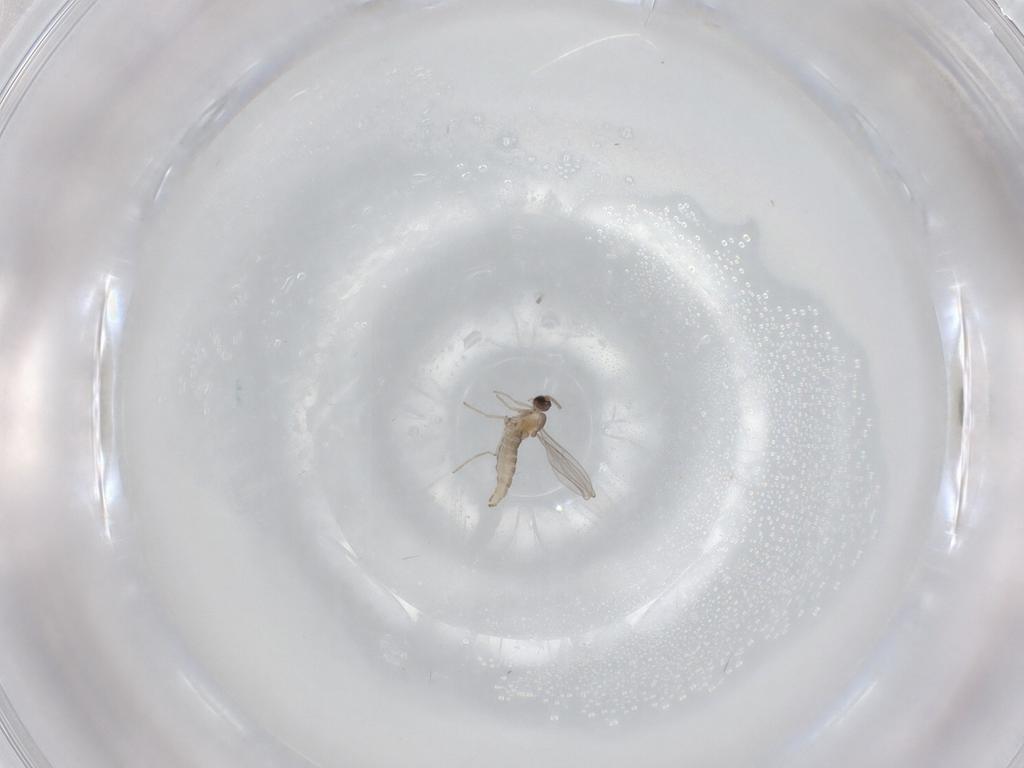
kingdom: Animalia
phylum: Arthropoda
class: Insecta
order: Diptera
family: Cecidomyiidae
